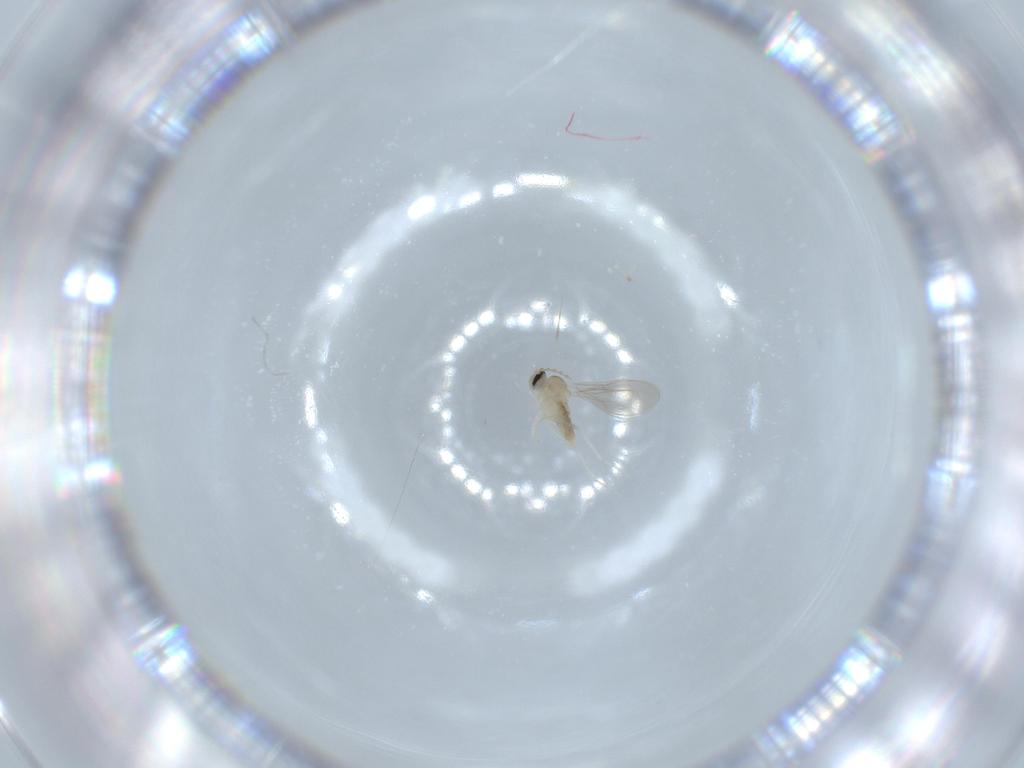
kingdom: Animalia
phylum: Arthropoda
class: Insecta
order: Diptera
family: Cecidomyiidae
